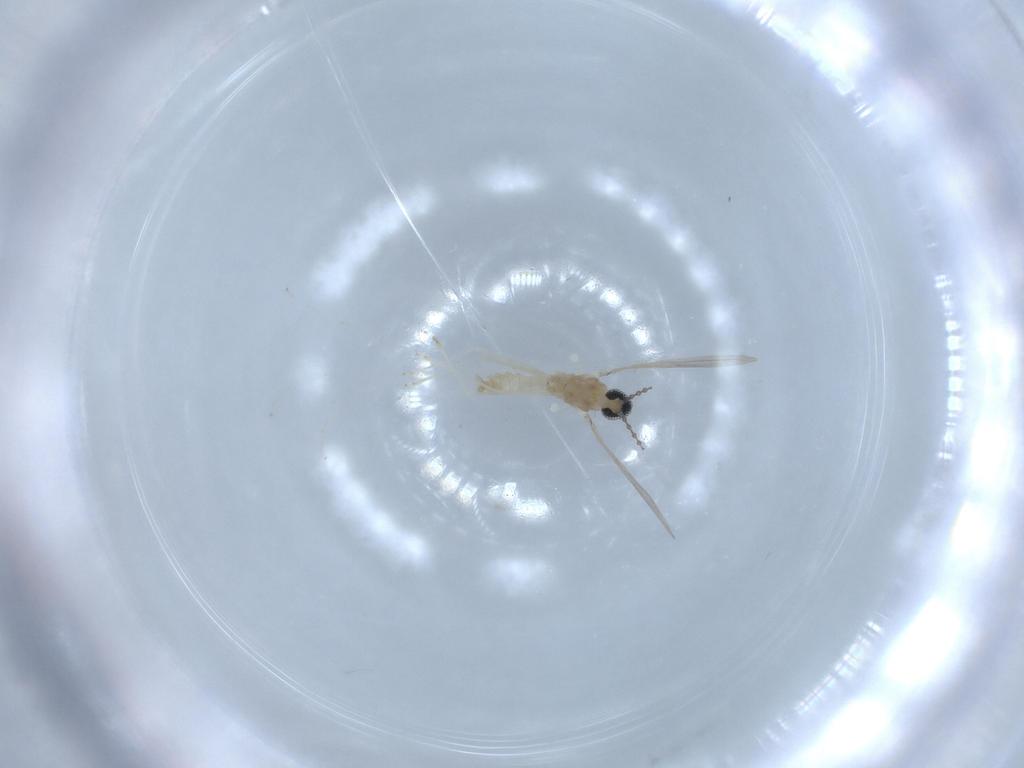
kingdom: Animalia
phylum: Arthropoda
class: Insecta
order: Diptera
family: Cecidomyiidae
